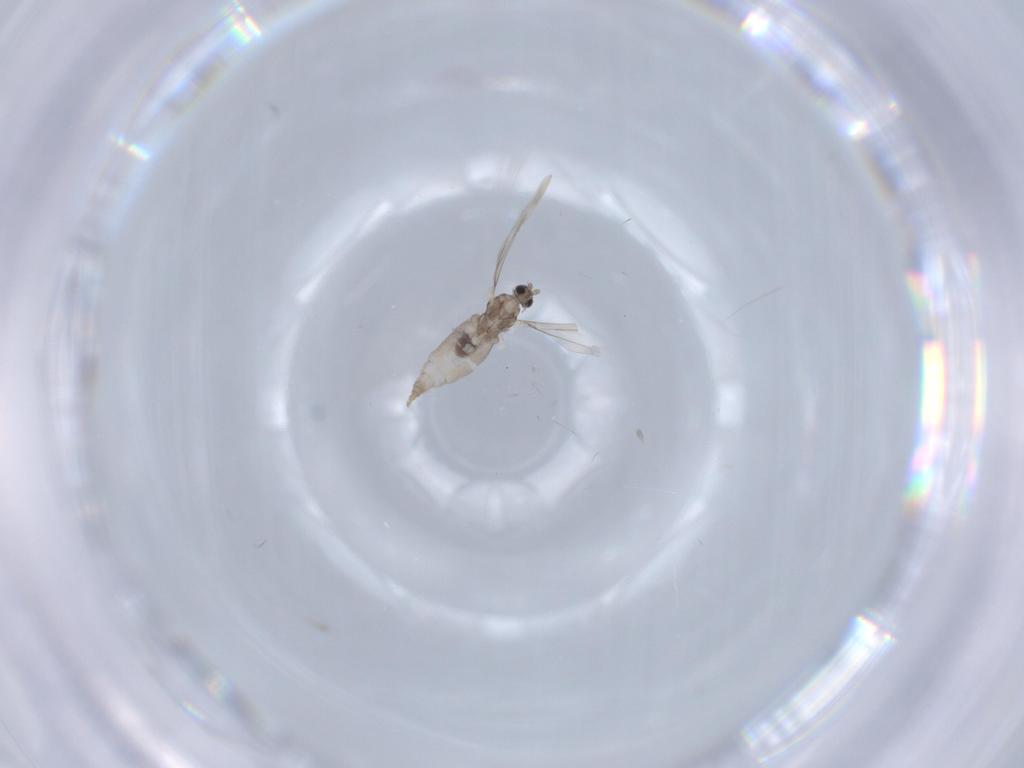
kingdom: Animalia
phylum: Arthropoda
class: Insecta
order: Diptera
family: Cecidomyiidae
